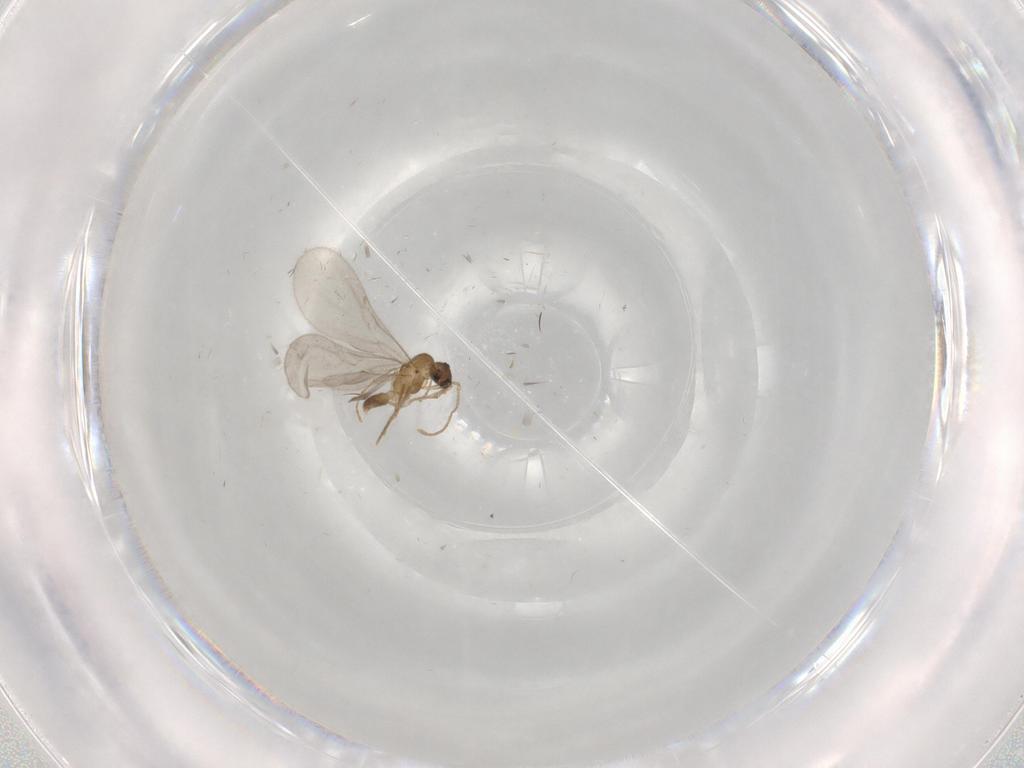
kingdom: Animalia
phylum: Arthropoda
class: Insecta
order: Hymenoptera
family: Formicidae
